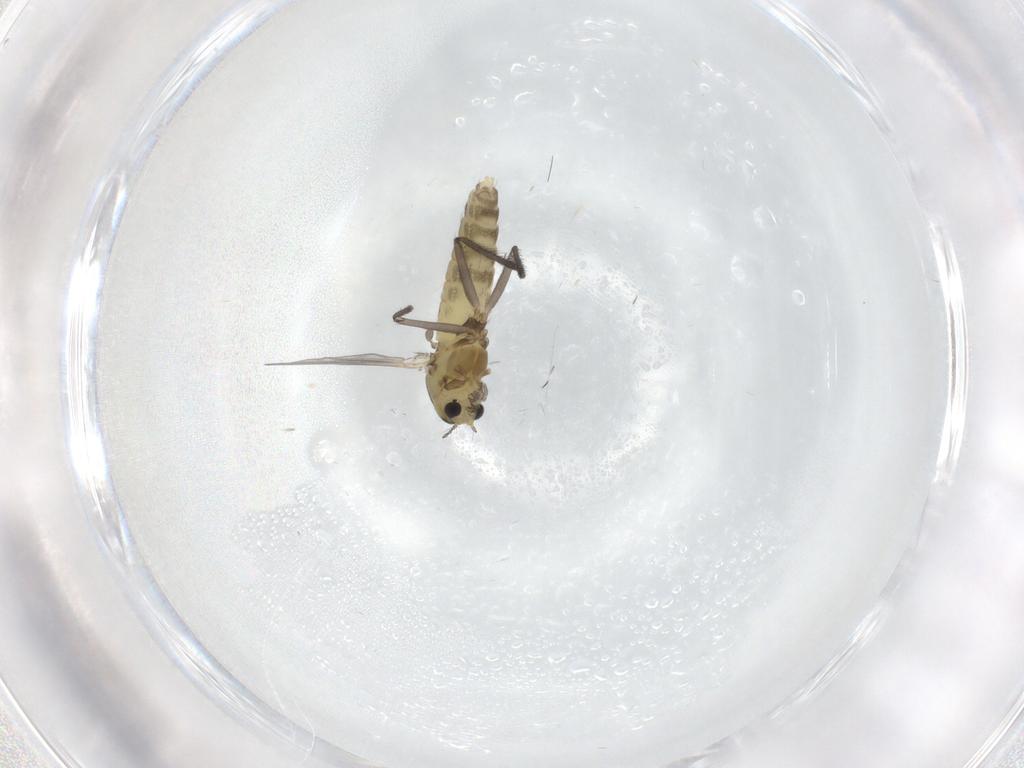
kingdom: Animalia
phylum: Arthropoda
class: Insecta
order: Diptera
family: Chironomidae
